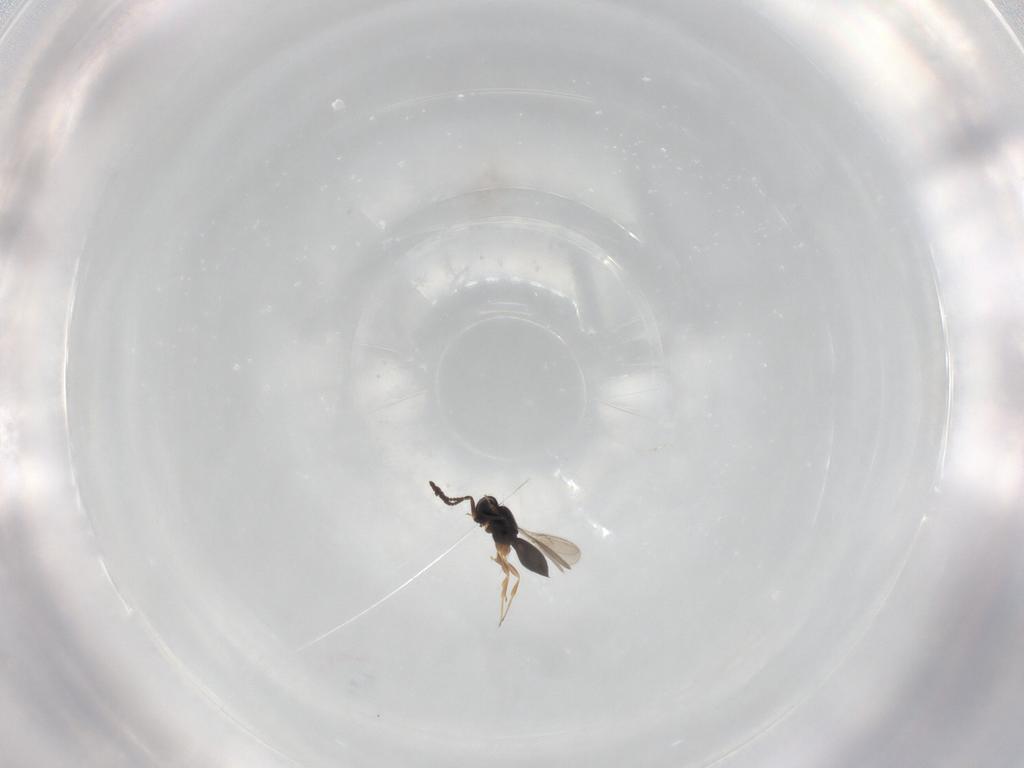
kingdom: Animalia
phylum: Arthropoda
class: Insecta
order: Hymenoptera
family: Scelionidae
